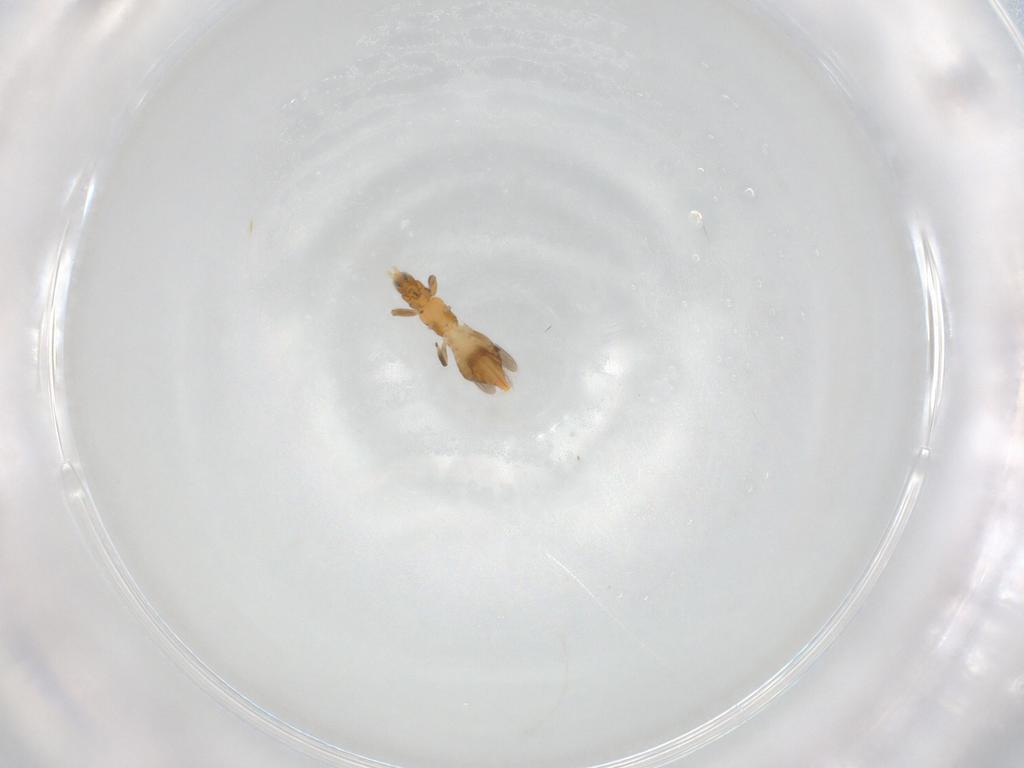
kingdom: Animalia
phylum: Arthropoda
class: Insecta
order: Thysanoptera
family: Aeolothripidae
